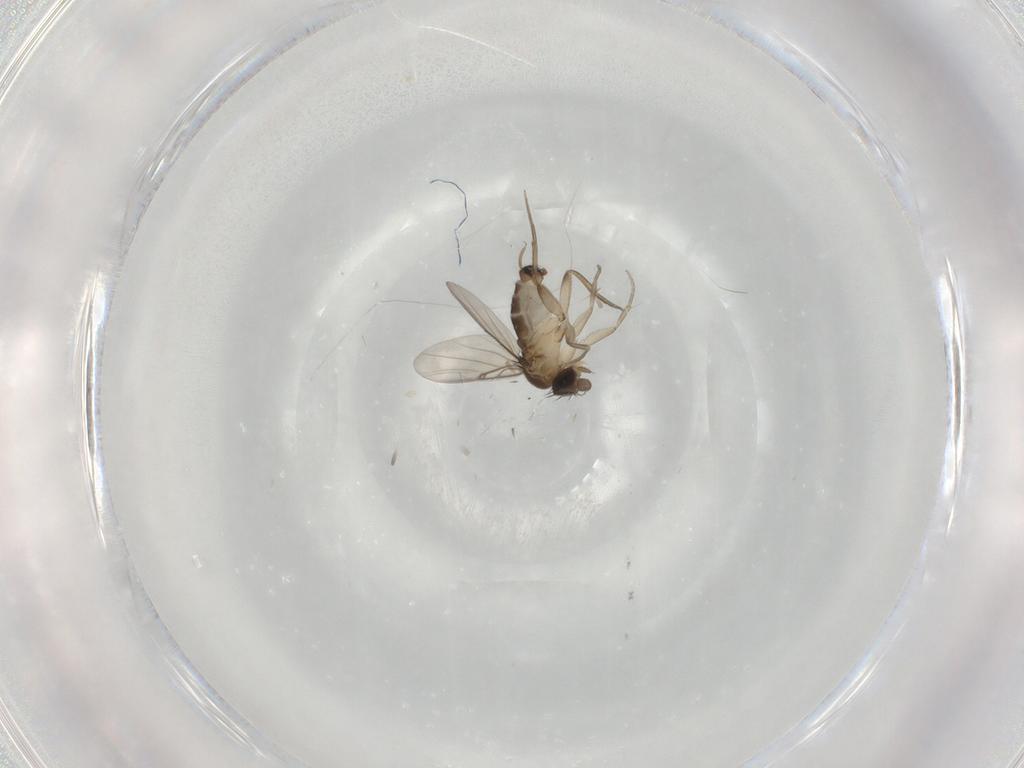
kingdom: Animalia
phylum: Arthropoda
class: Insecta
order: Diptera
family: Phoridae
